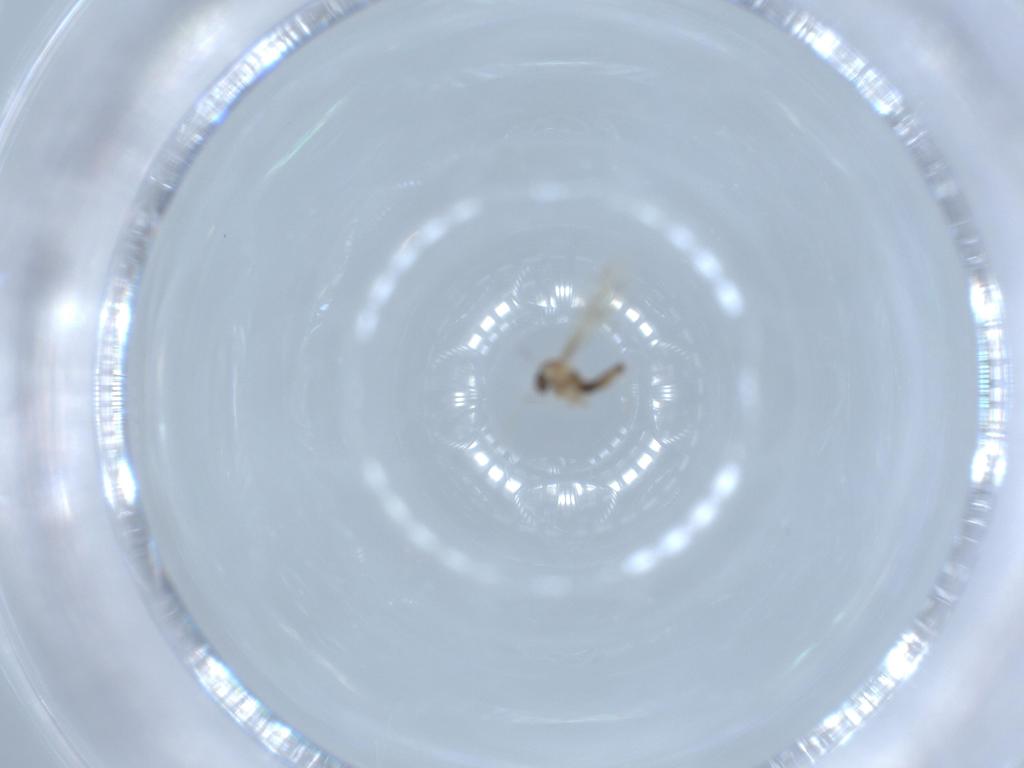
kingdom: Animalia
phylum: Arthropoda
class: Insecta
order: Diptera
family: Cecidomyiidae
